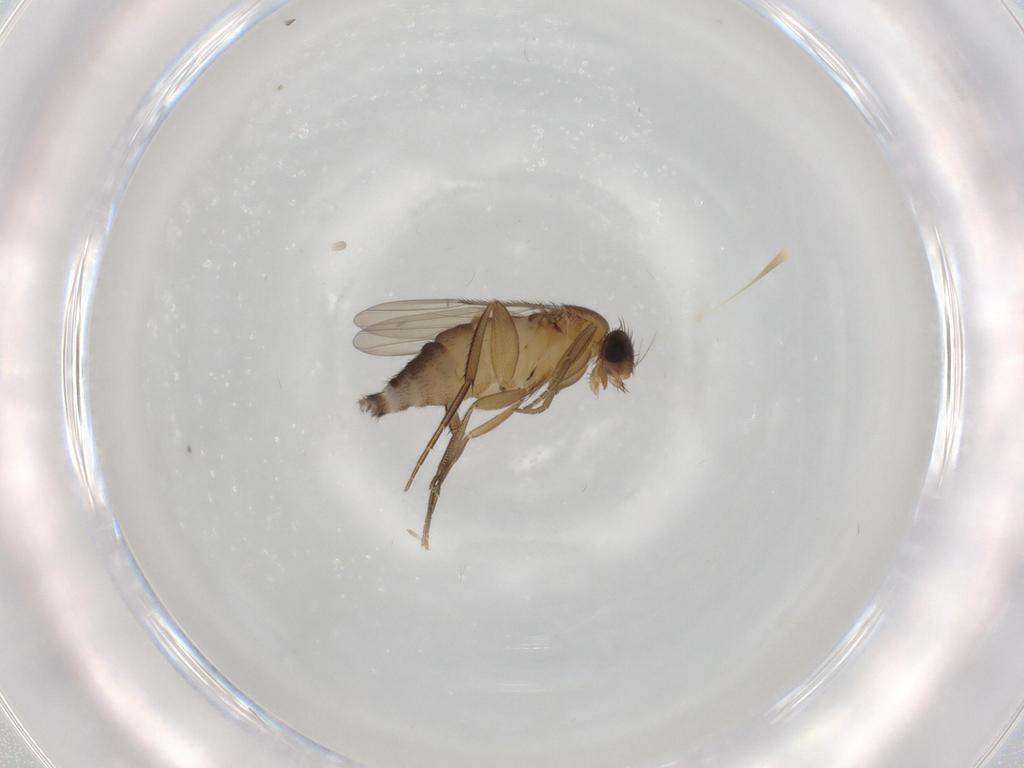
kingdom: Animalia
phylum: Arthropoda
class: Insecta
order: Diptera
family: Phoridae
